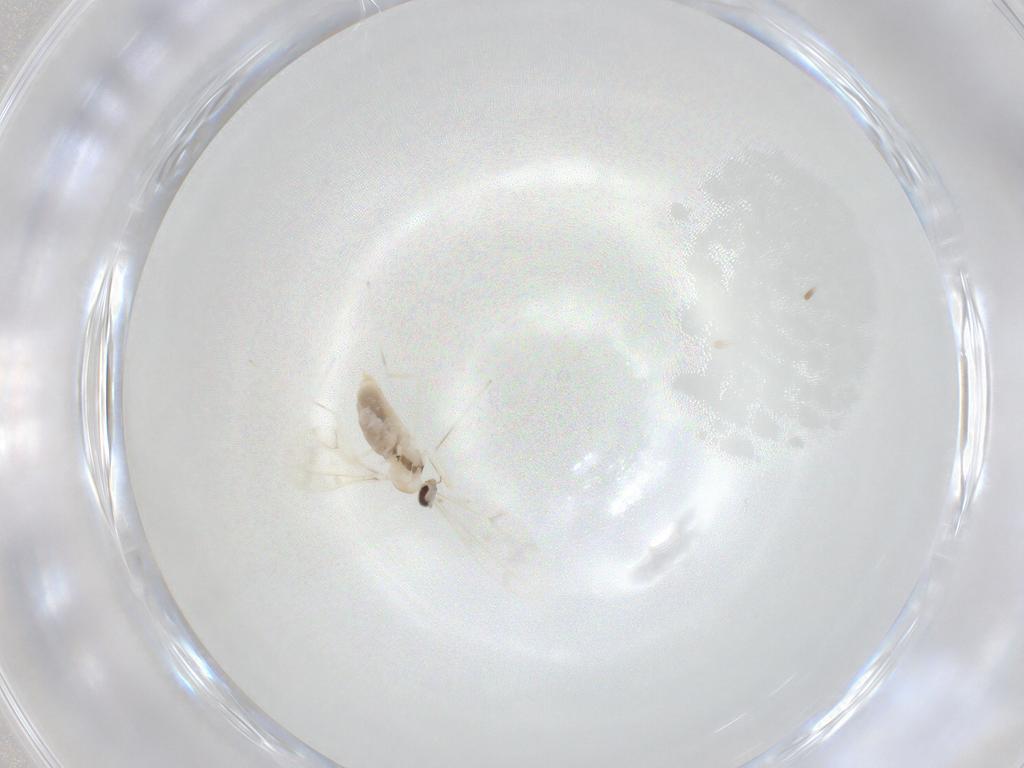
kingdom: Animalia
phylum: Arthropoda
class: Insecta
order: Diptera
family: Cecidomyiidae
